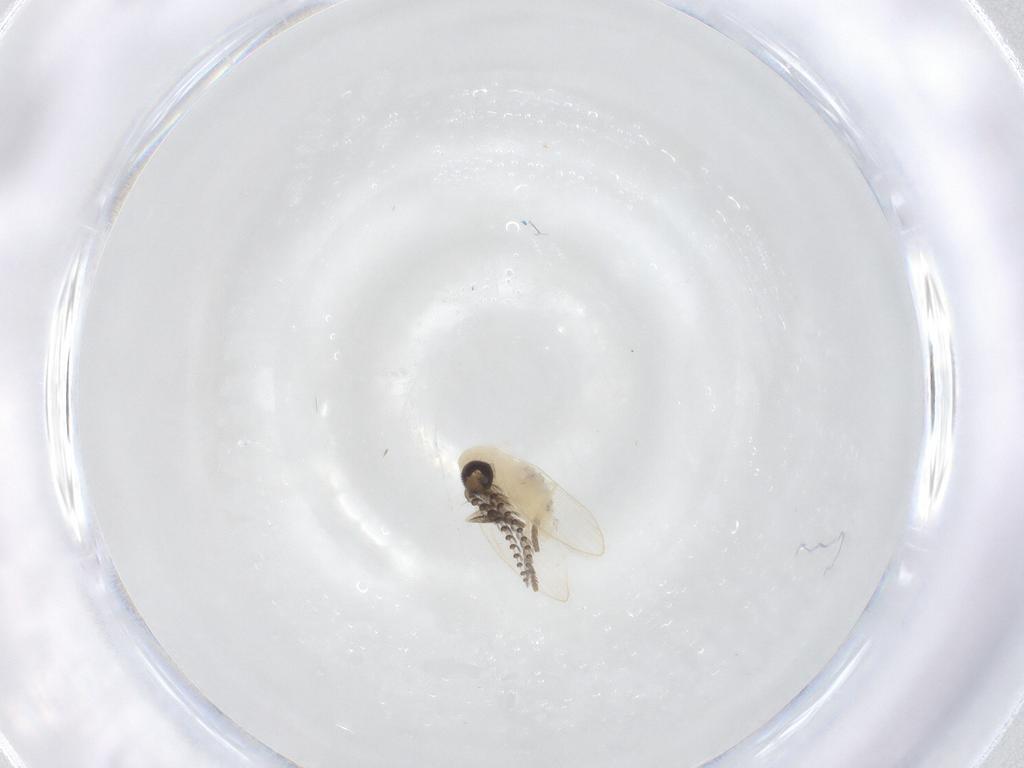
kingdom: Animalia
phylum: Arthropoda
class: Insecta
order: Diptera
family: Psychodidae
